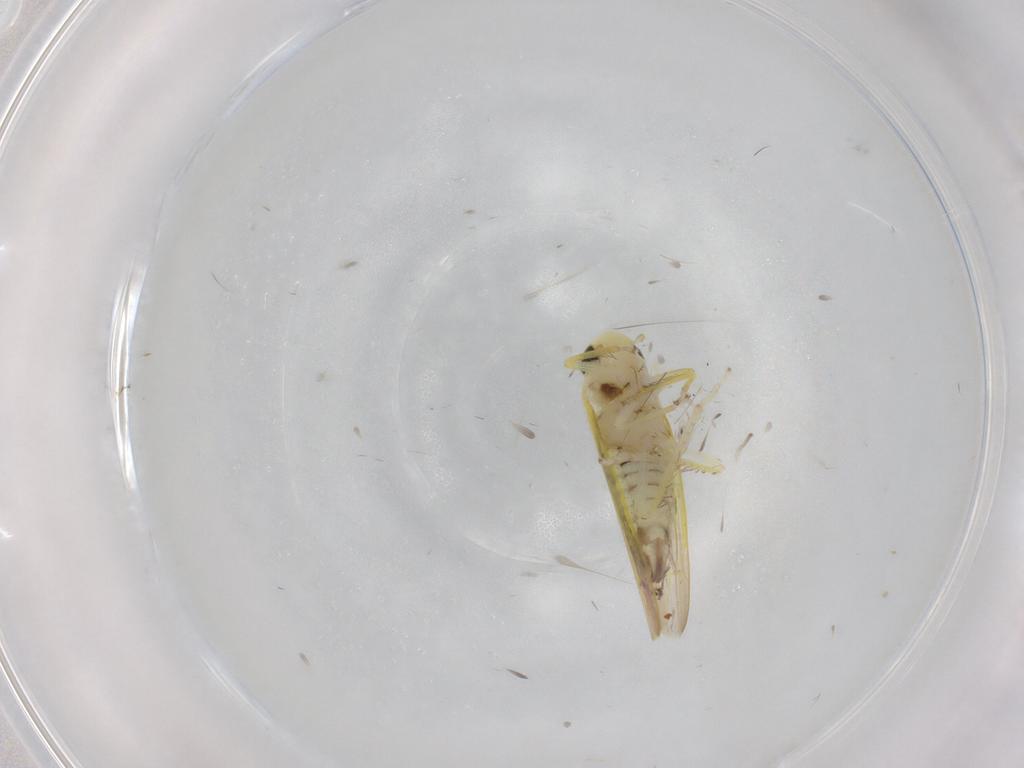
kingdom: Animalia
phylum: Arthropoda
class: Insecta
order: Hemiptera
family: Cicadellidae
